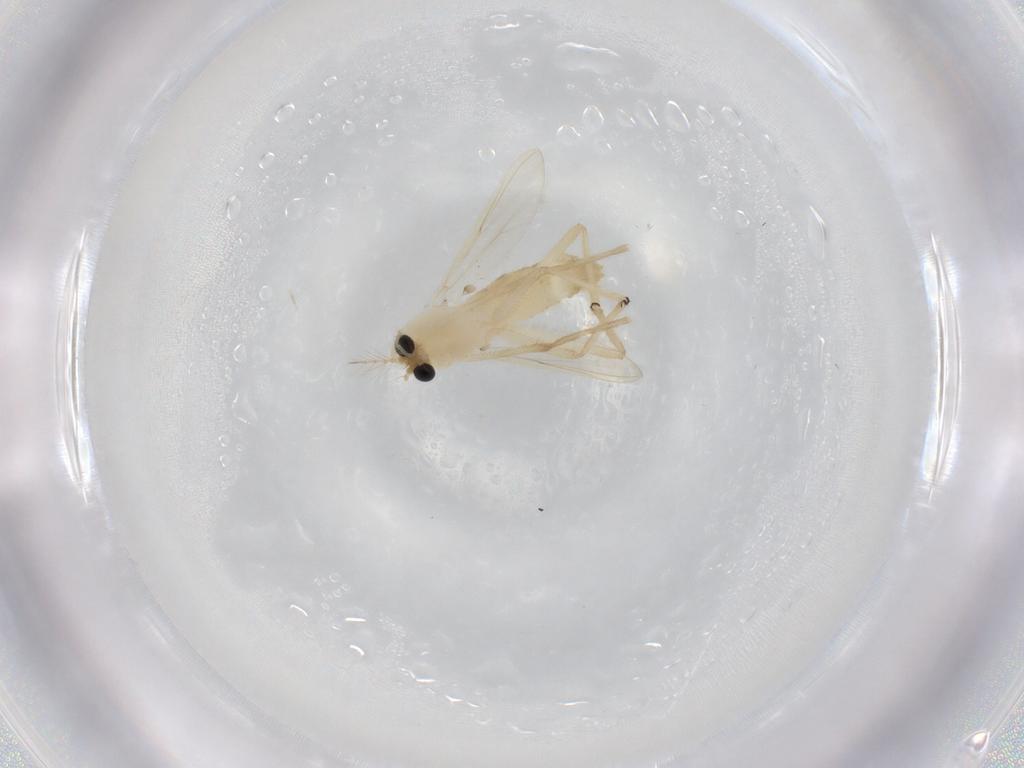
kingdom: Animalia
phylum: Arthropoda
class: Insecta
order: Diptera
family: Chironomidae
